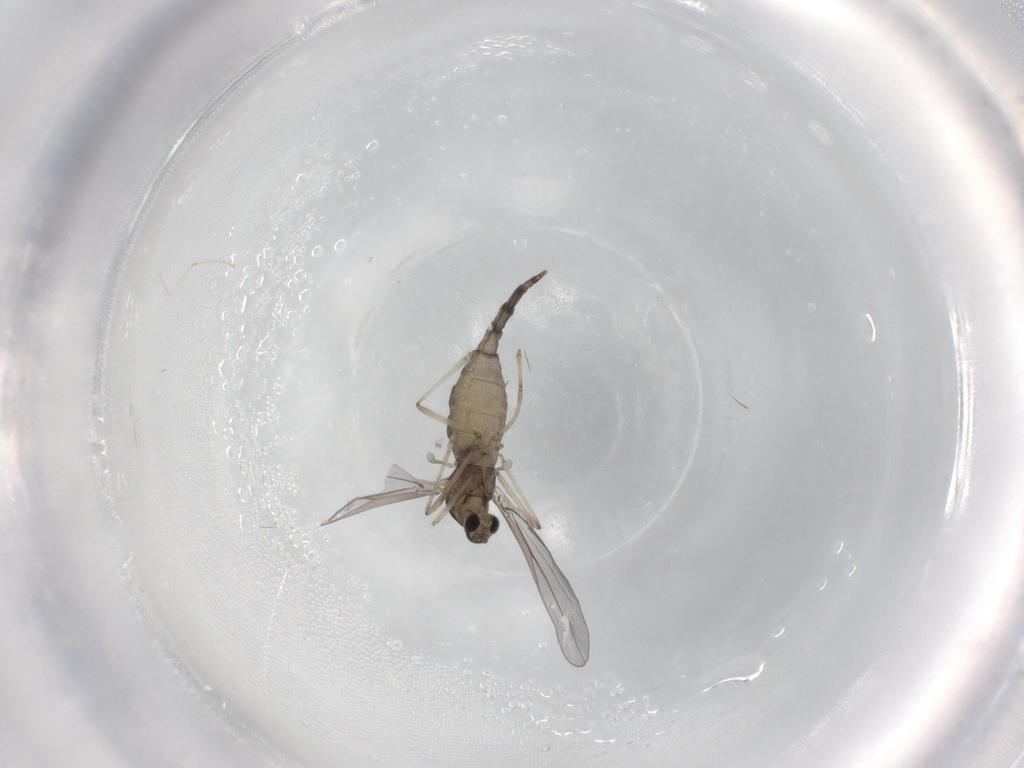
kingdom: Animalia
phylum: Arthropoda
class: Insecta
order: Diptera
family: Cecidomyiidae
